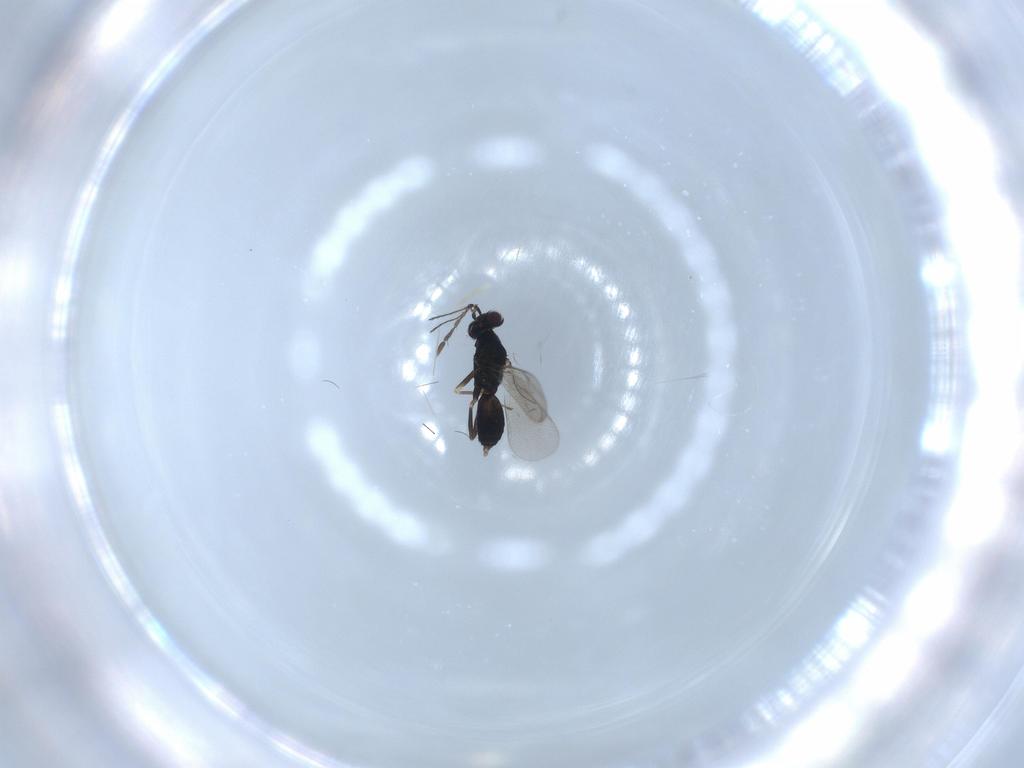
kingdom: Animalia
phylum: Arthropoda
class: Insecta
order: Hymenoptera
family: Eulophidae
